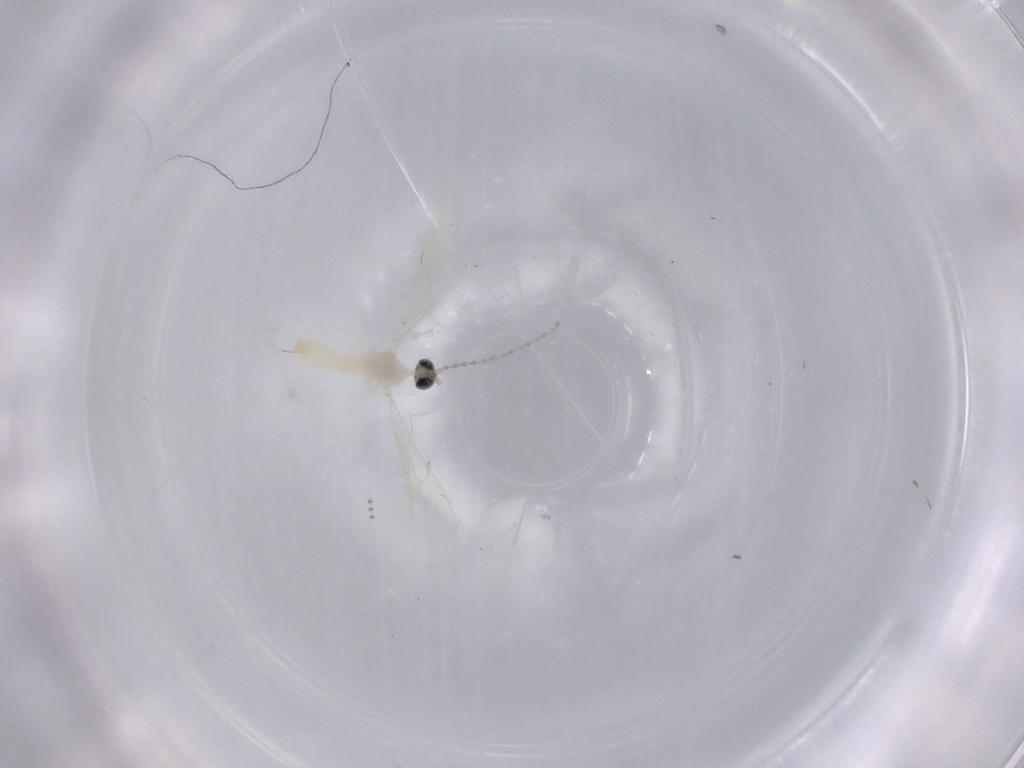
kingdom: Animalia
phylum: Arthropoda
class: Insecta
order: Diptera
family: Cecidomyiidae
